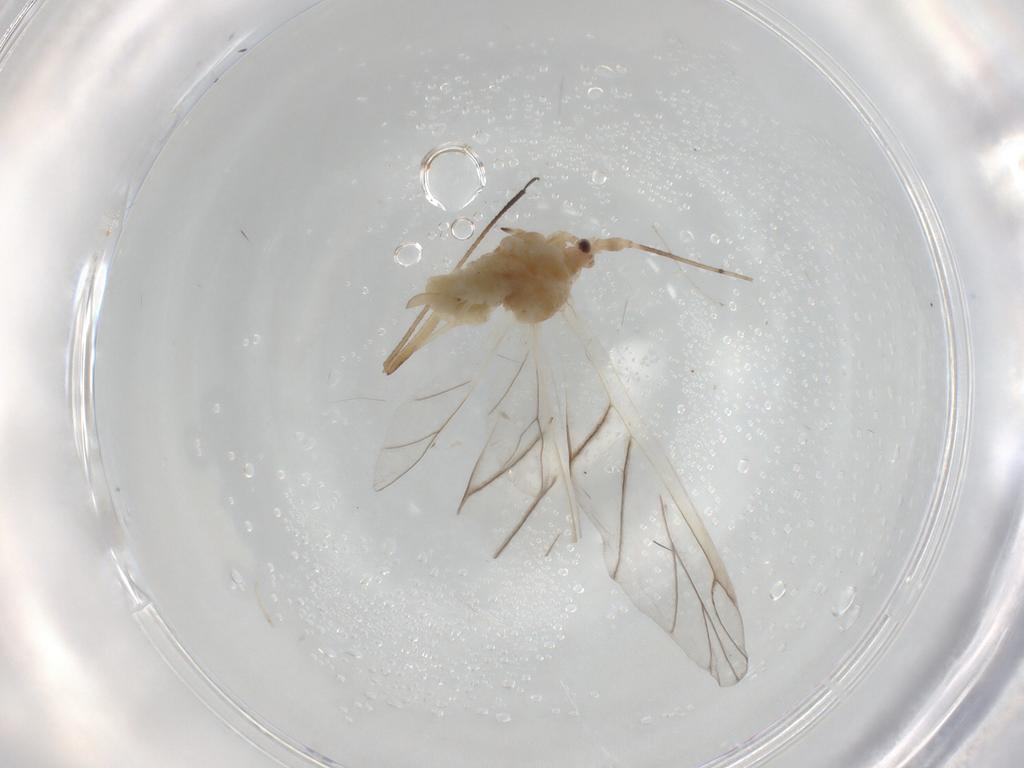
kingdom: Animalia
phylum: Arthropoda
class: Insecta
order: Hemiptera
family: Aphididae
